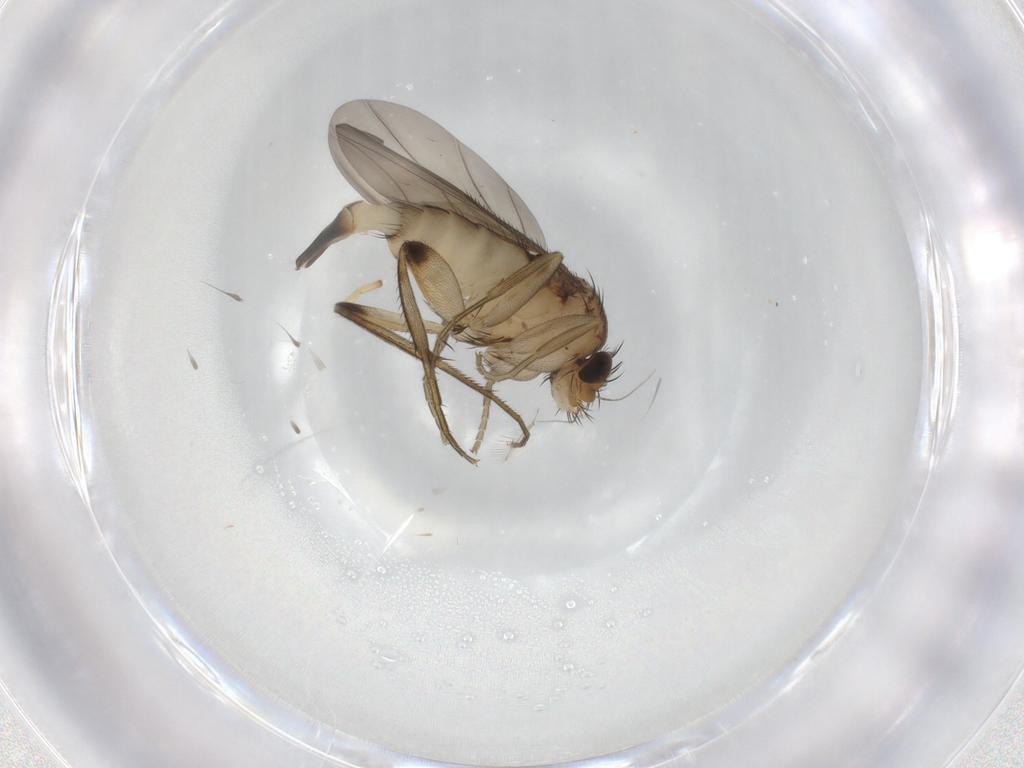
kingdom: Animalia
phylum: Arthropoda
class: Insecta
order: Diptera
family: Phoridae
